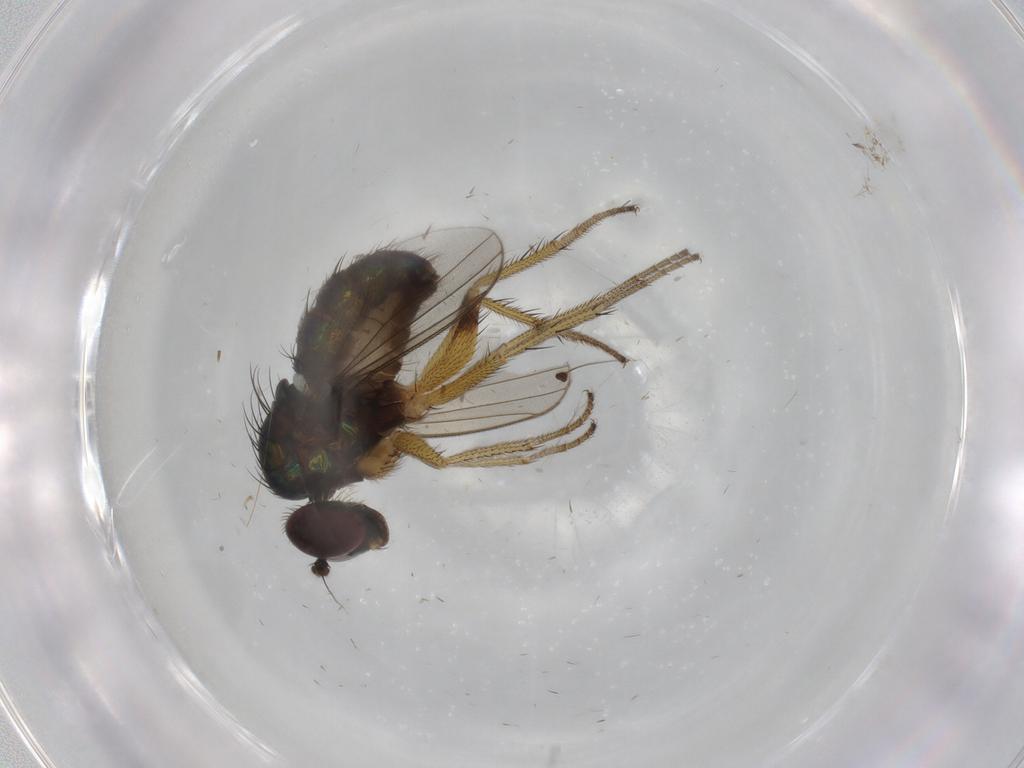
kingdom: Animalia
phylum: Arthropoda
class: Insecta
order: Diptera
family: Dolichopodidae
